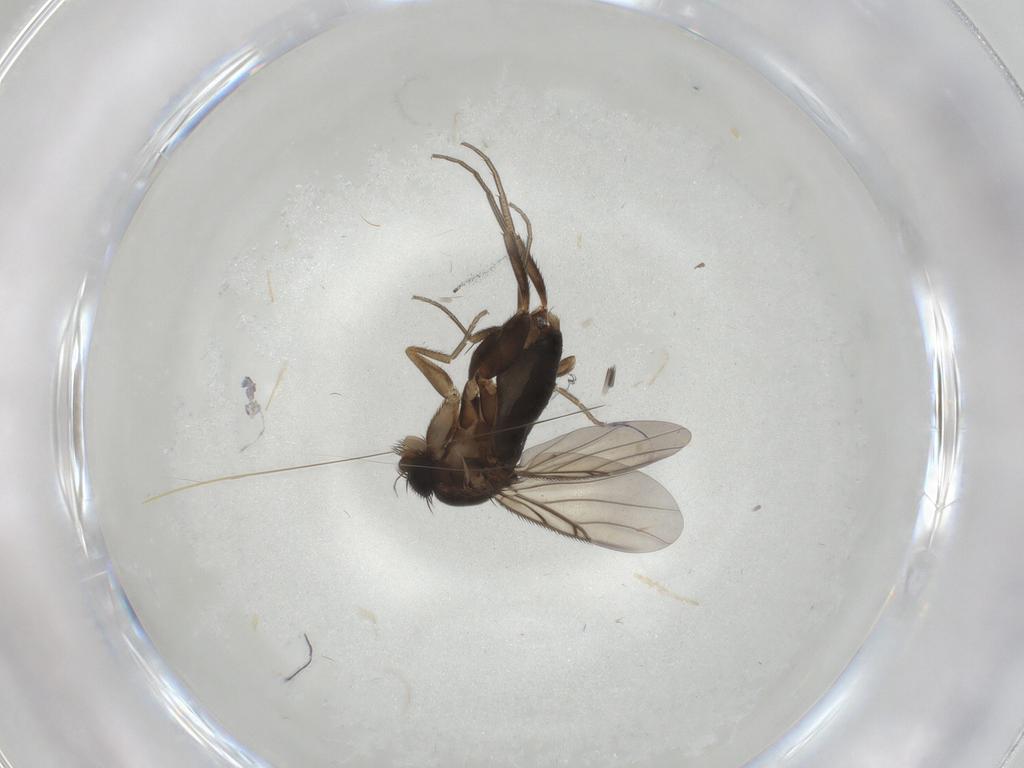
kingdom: Animalia
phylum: Arthropoda
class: Insecta
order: Diptera
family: Phoridae
